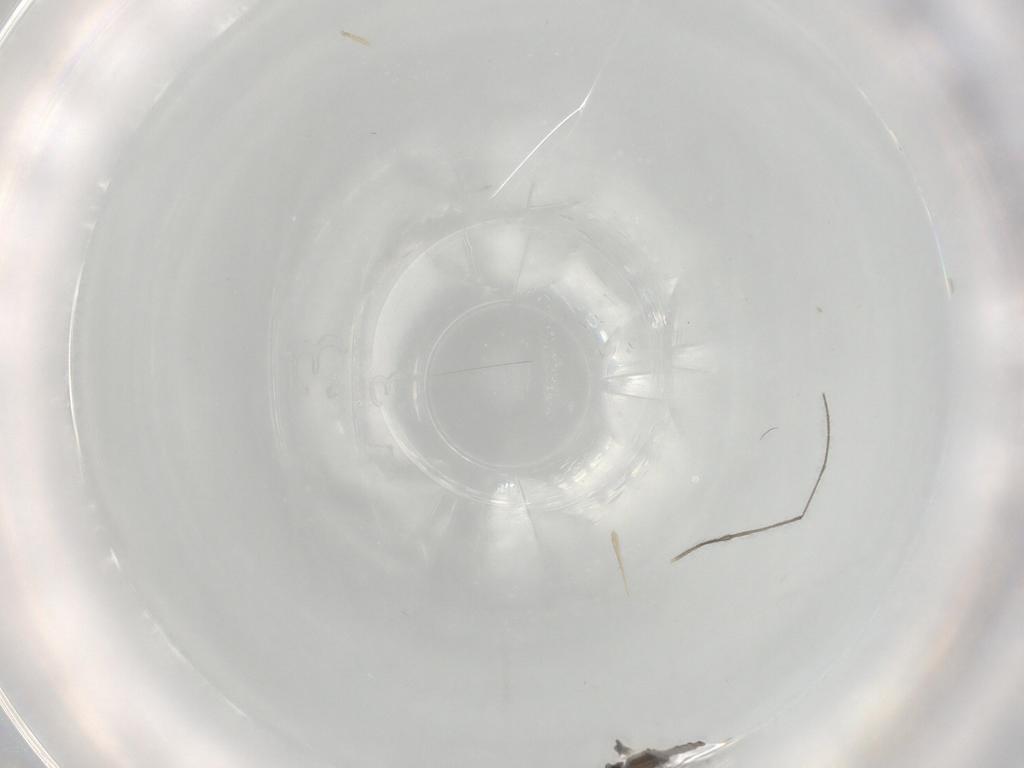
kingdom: Animalia
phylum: Arthropoda
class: Insecta
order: Diptera
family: Cecidomyiidae
